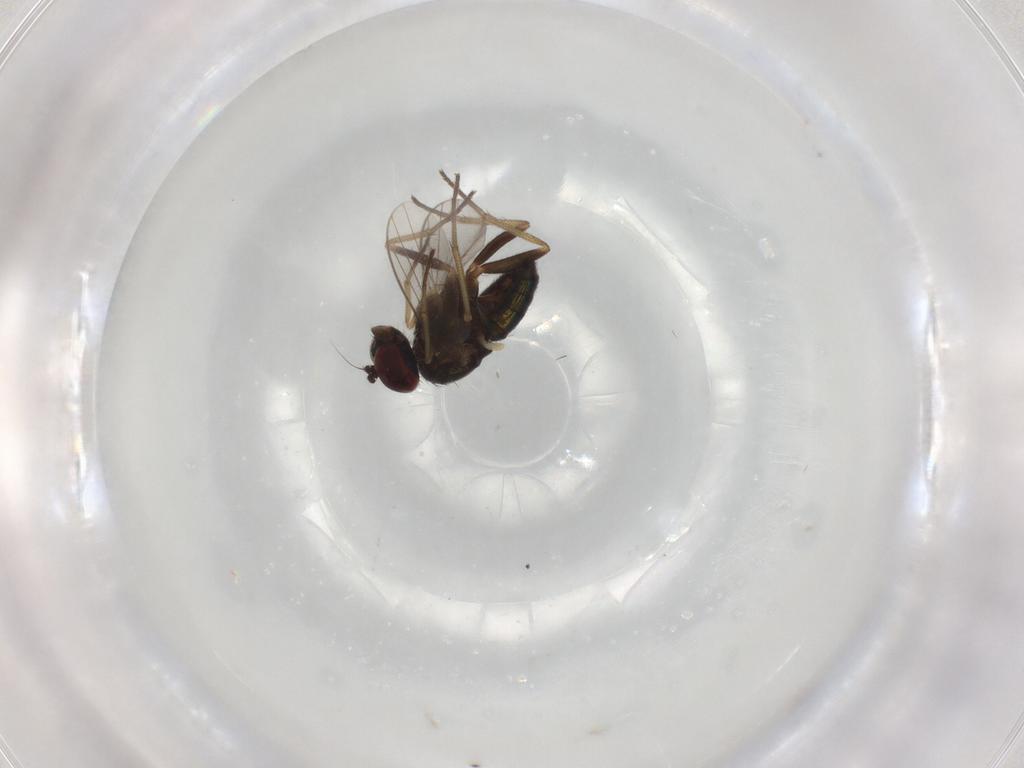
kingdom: Animalia
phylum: Arthropoda
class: Insecta
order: Diptera
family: Dolichopodidae
